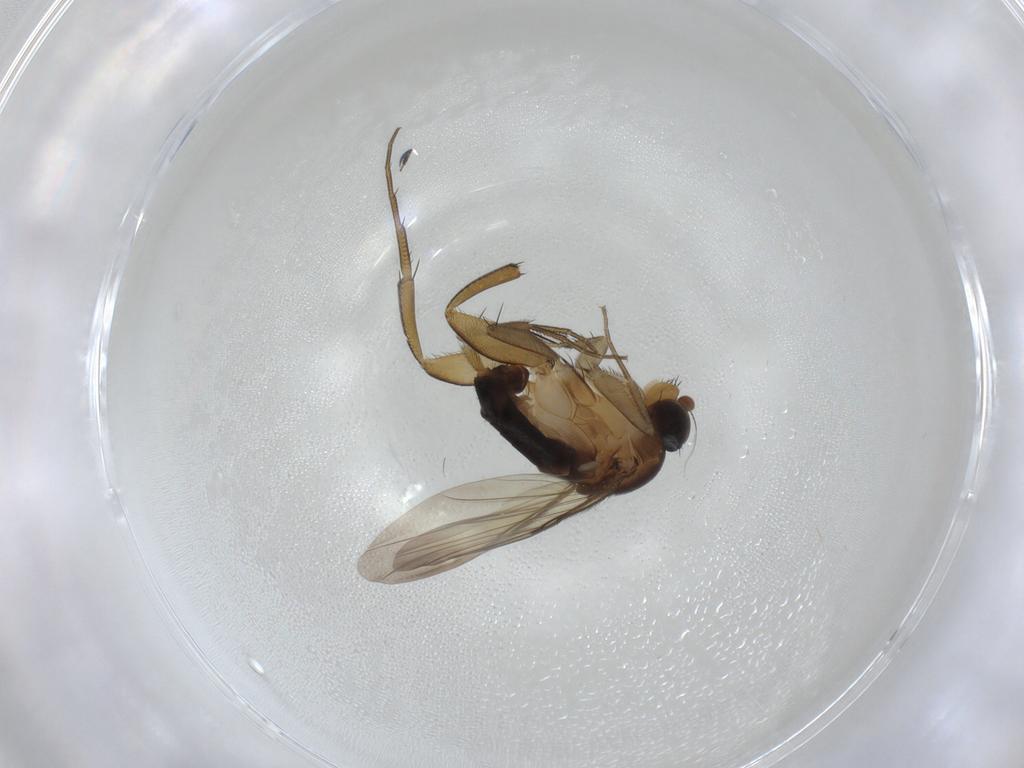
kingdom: Animalia
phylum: Arthropoda
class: Insecta
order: Diptera
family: Phoridae
